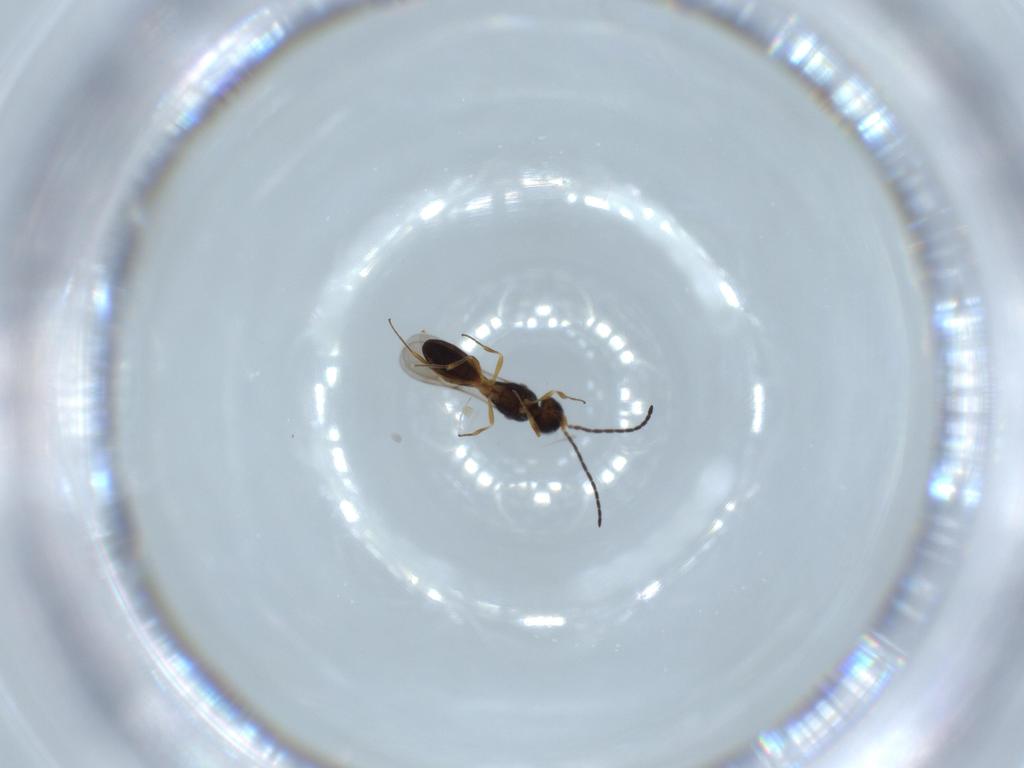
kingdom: Animalia
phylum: Arthropoda
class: Insecta
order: Hymenoptera
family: Scelionidae
